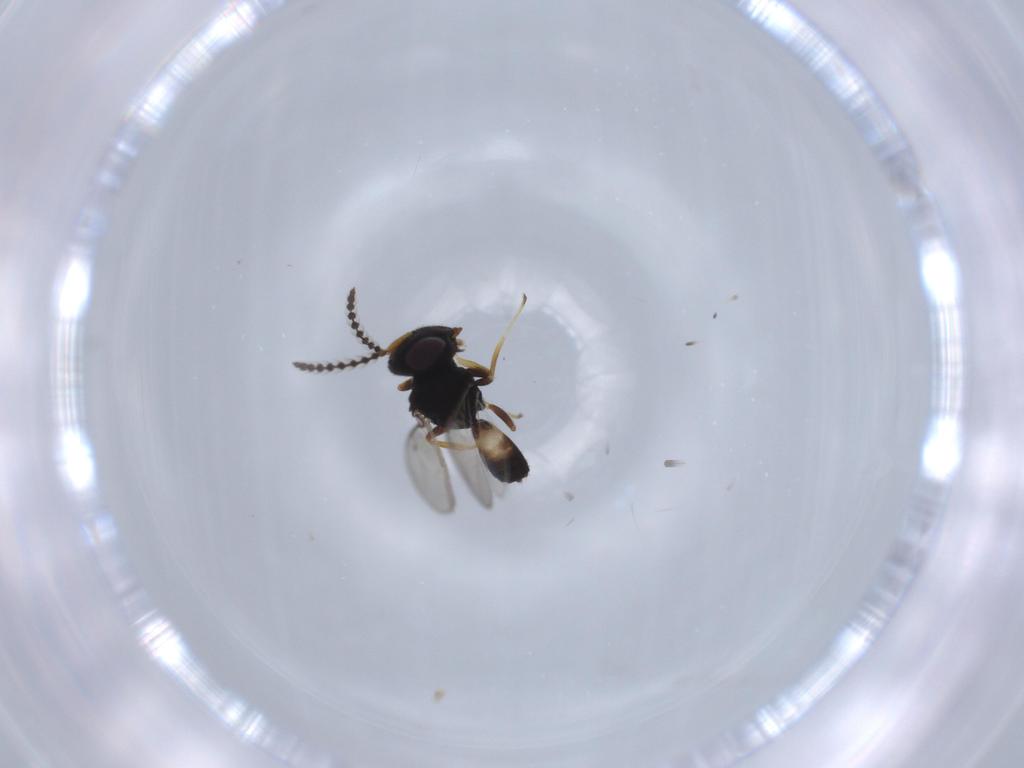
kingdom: Animalia
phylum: Arthropoda
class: Insecta
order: Hymenoptera
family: Pteromalidae
